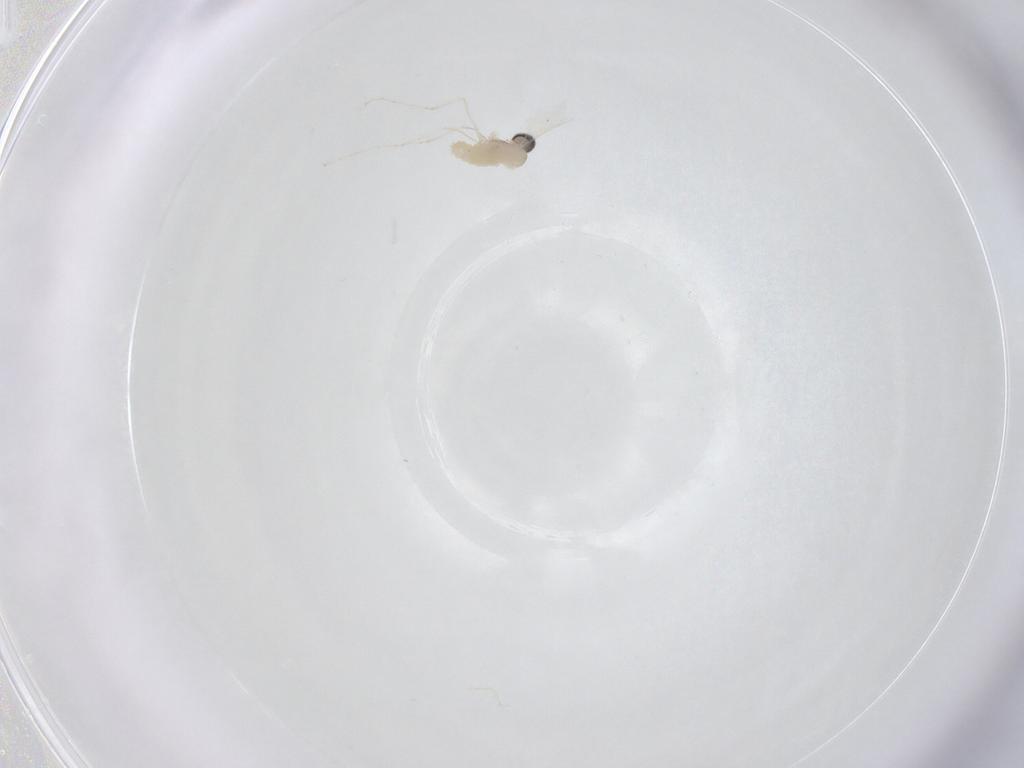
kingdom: Animalia
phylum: Arthropoda
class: Insecta
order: Diptera
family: Cecidomyiidae
